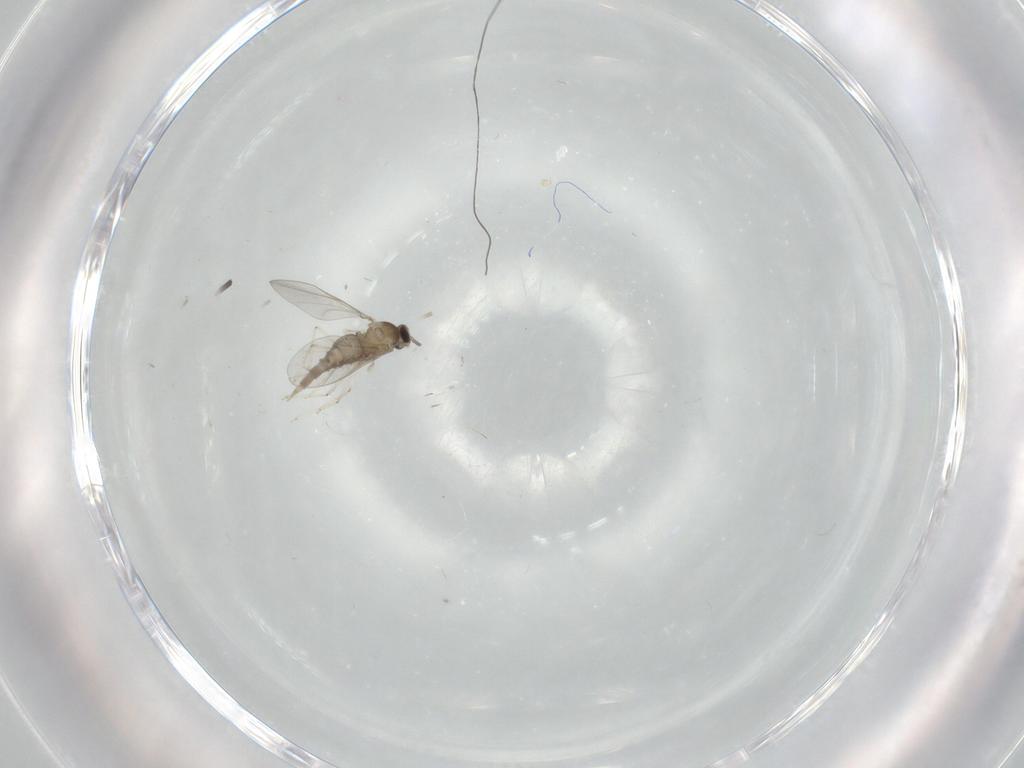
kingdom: Animalia
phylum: Arthropoda
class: Insecta
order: Diptera
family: Cecidomyiidae
